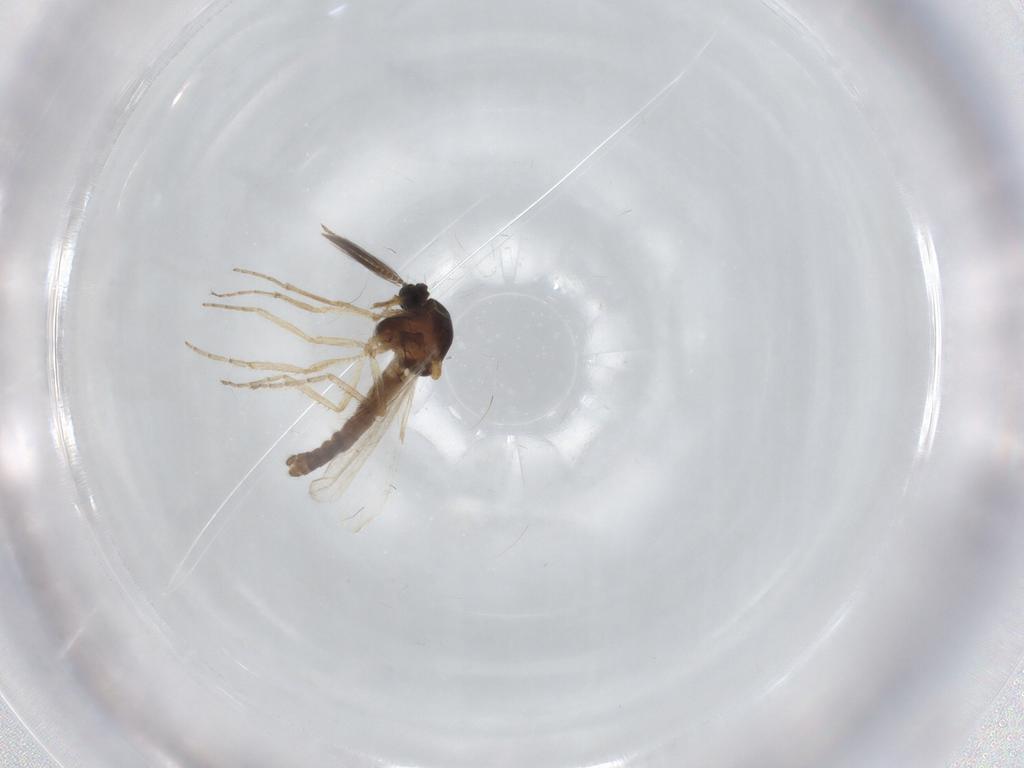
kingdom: Animalia
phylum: Arthropoda
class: Insecta
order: Diptera
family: Ceratopogonidae
